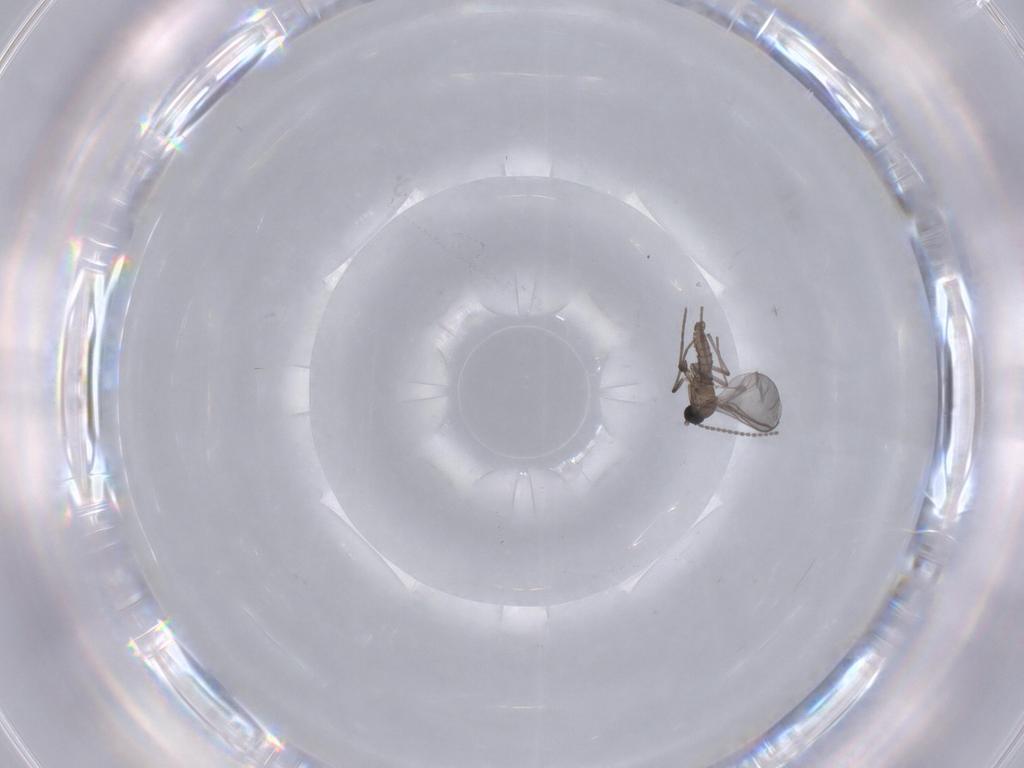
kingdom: Animalia
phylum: Arthropoda
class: Insecta
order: Diptera
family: Sciaridae
